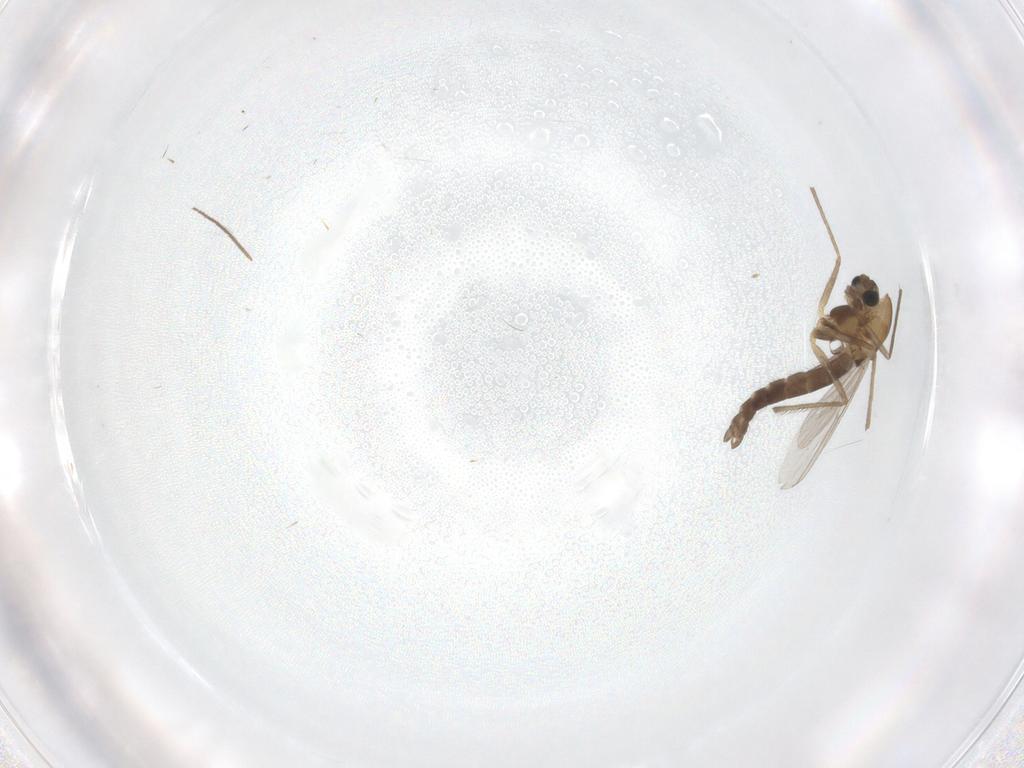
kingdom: Animalia
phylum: Arthropoda
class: Insecta
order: Diptera
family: Chironomidae
